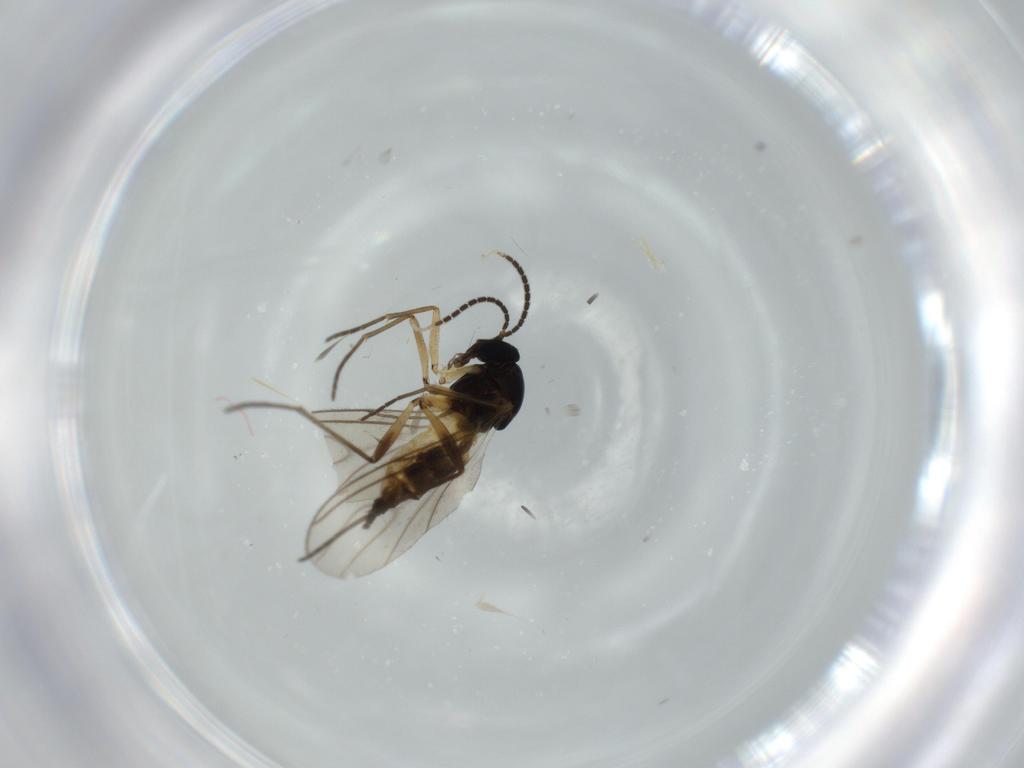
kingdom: Animalia
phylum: Arthropoda
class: Insecta
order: Diptera
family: Heleomyzidae
